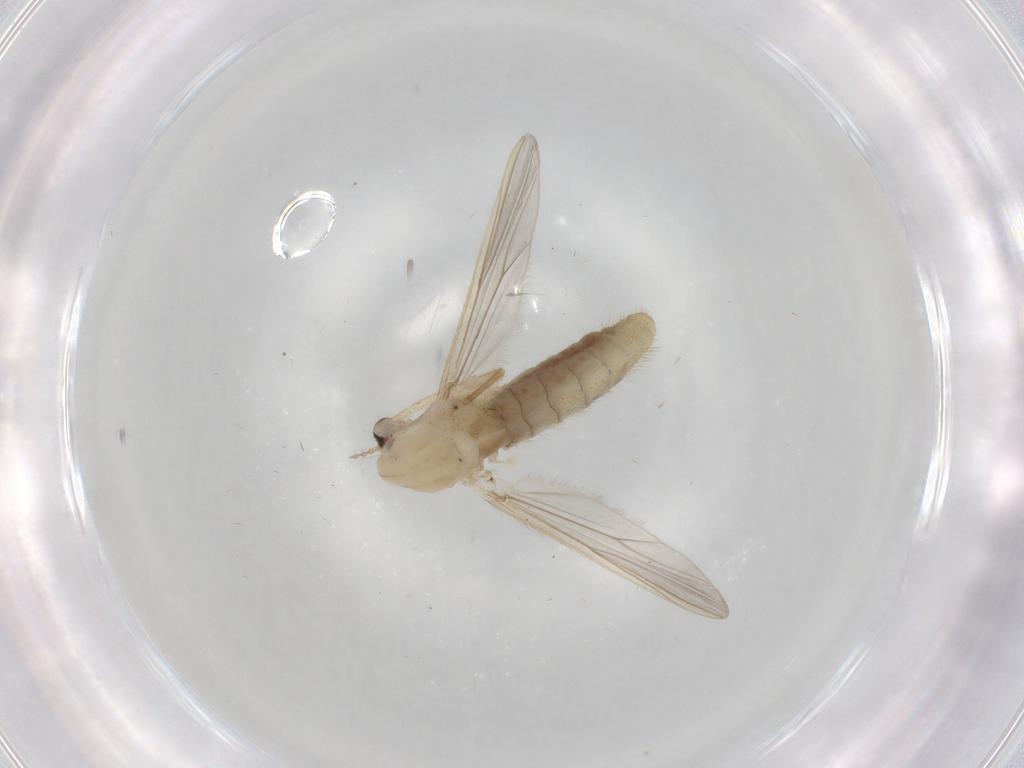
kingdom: Animalia
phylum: Arthropoda
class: Insecta
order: Diptera
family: Chironomidae
